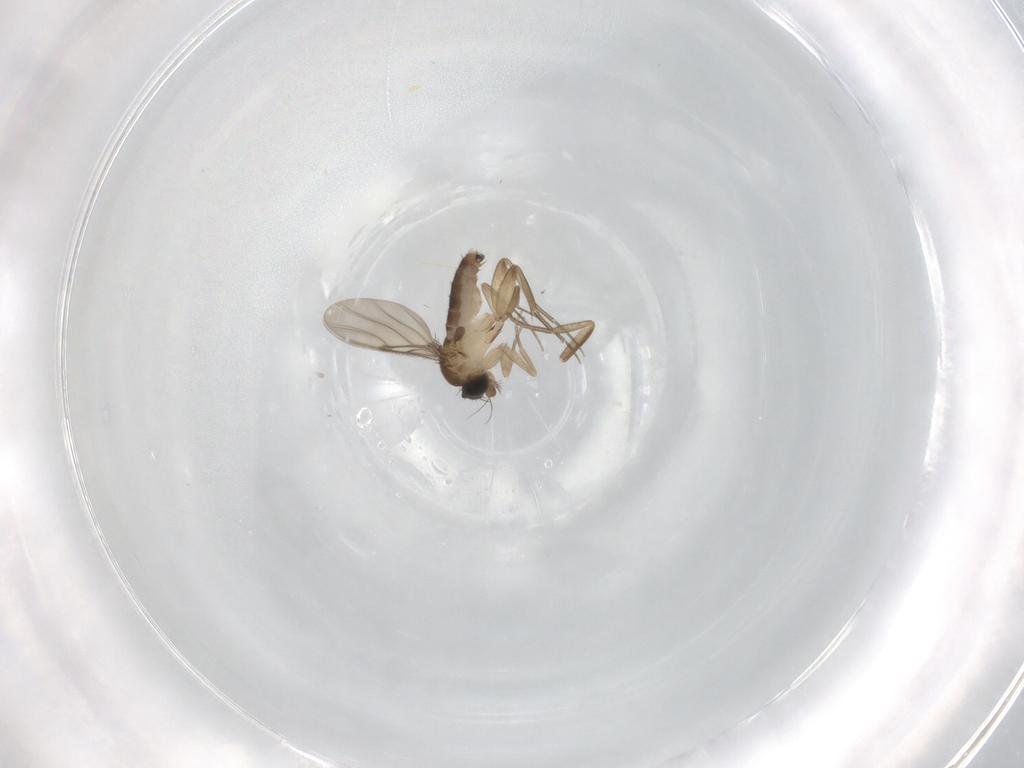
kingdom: Animalia
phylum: Arthropoda
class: Insecta
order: Diptera
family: Phoridae
